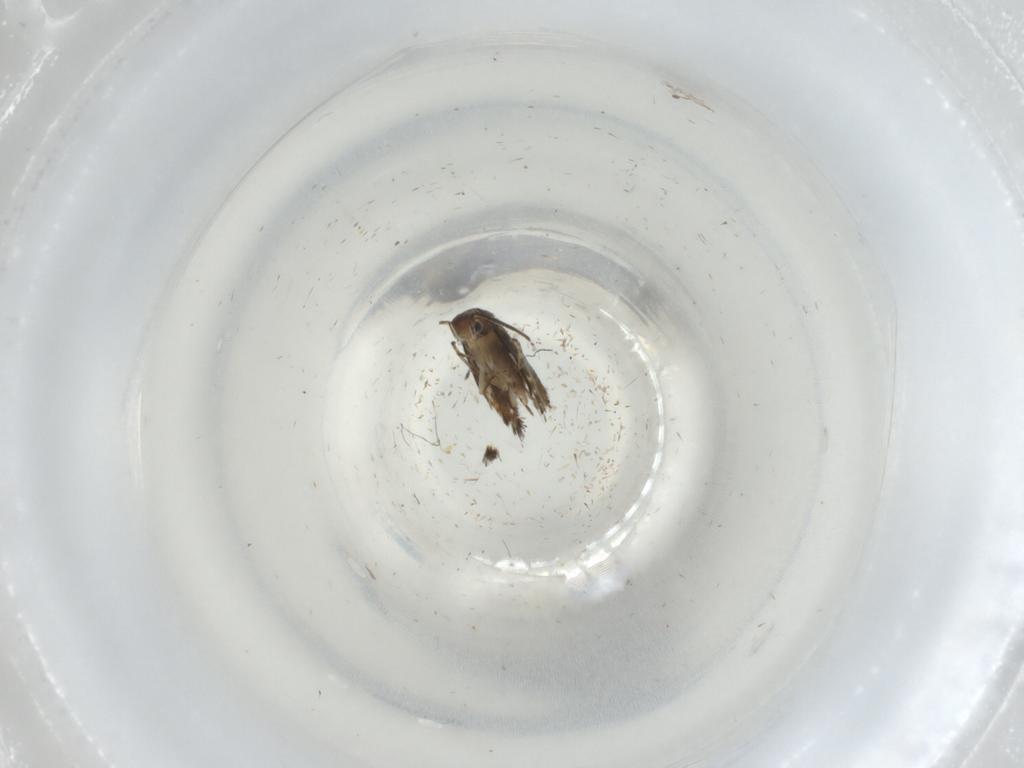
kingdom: Animalia
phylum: Arthropoda
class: Insecta
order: Lepidoptera
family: Glyphipterigidae
